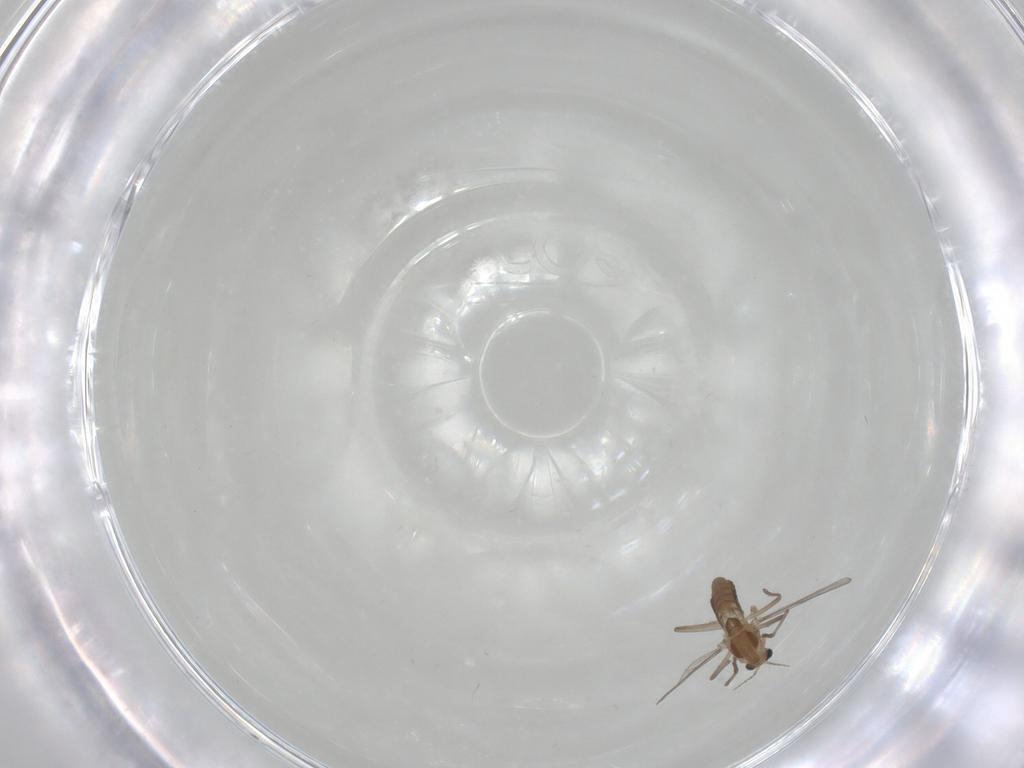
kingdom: Animalia
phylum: Arthropoda
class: Insecta
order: Diptera
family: Chironomidae
